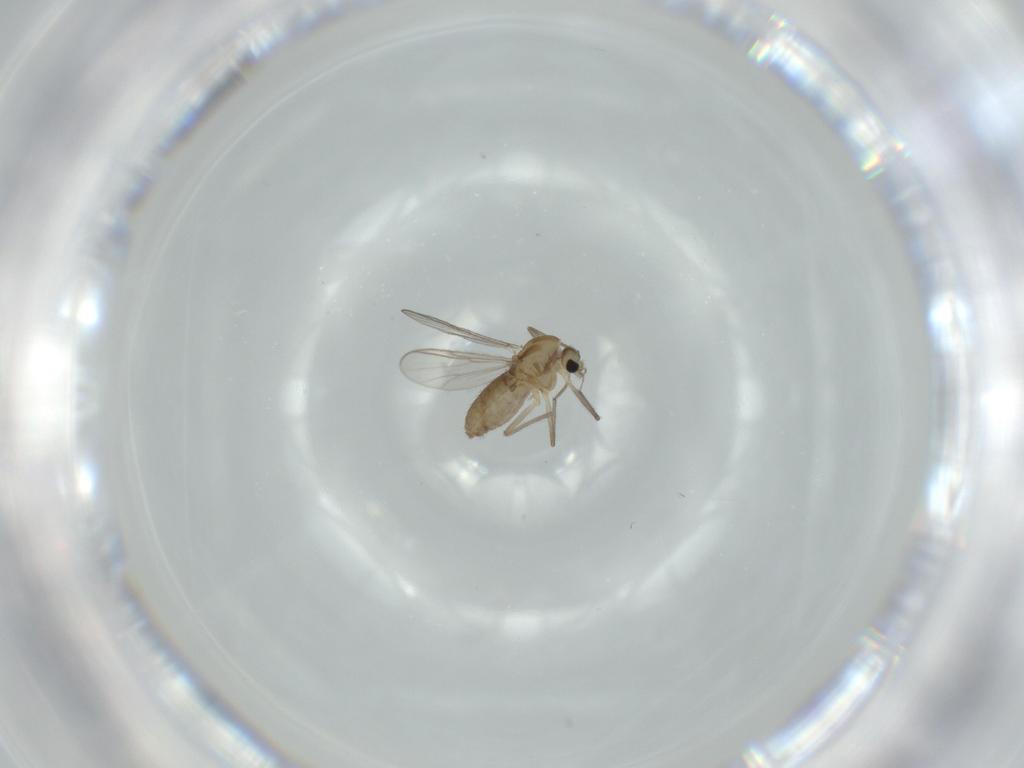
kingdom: Animalia
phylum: Arthropoda
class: Insecta
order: Diptera
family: Chironomidae
